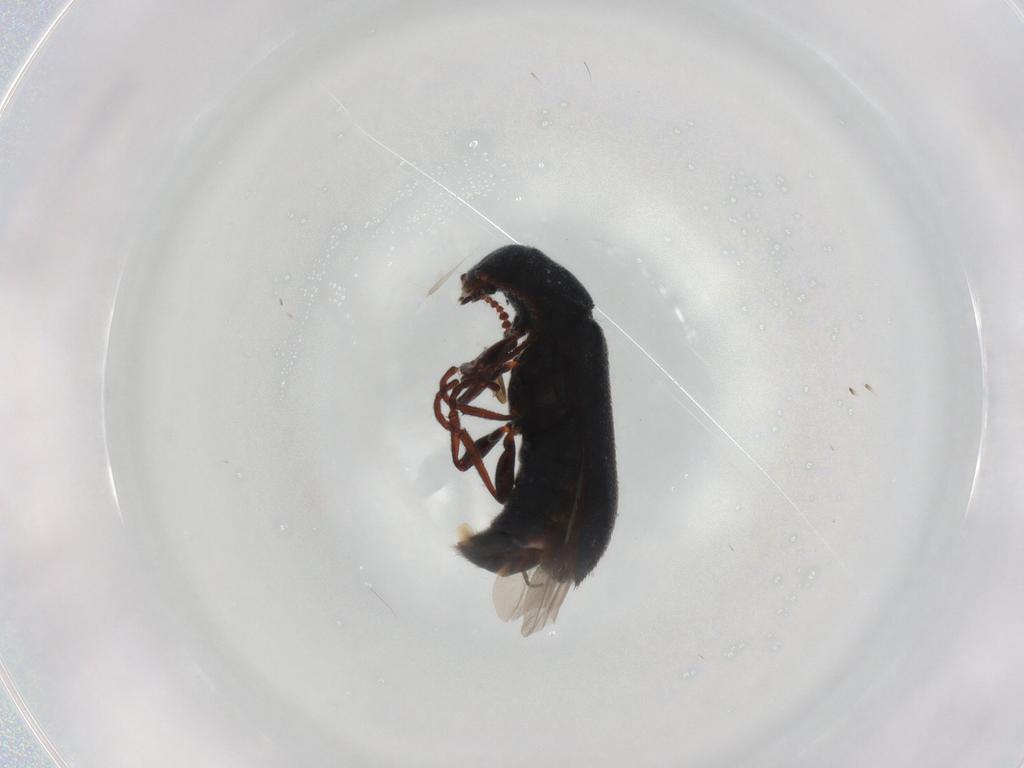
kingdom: Animalia
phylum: Arthropoda
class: Insecta
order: Coleoptera
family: Melyridae
